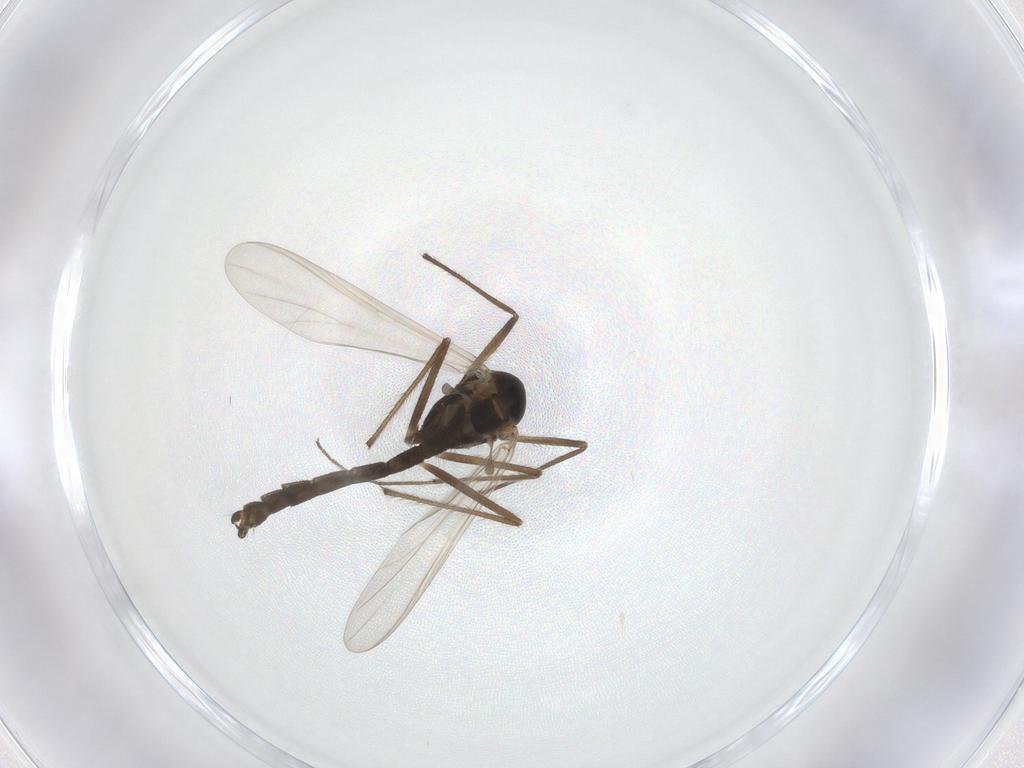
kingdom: Animalia
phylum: Arthropoda
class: Insecta
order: Diptera
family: Chironomidae
